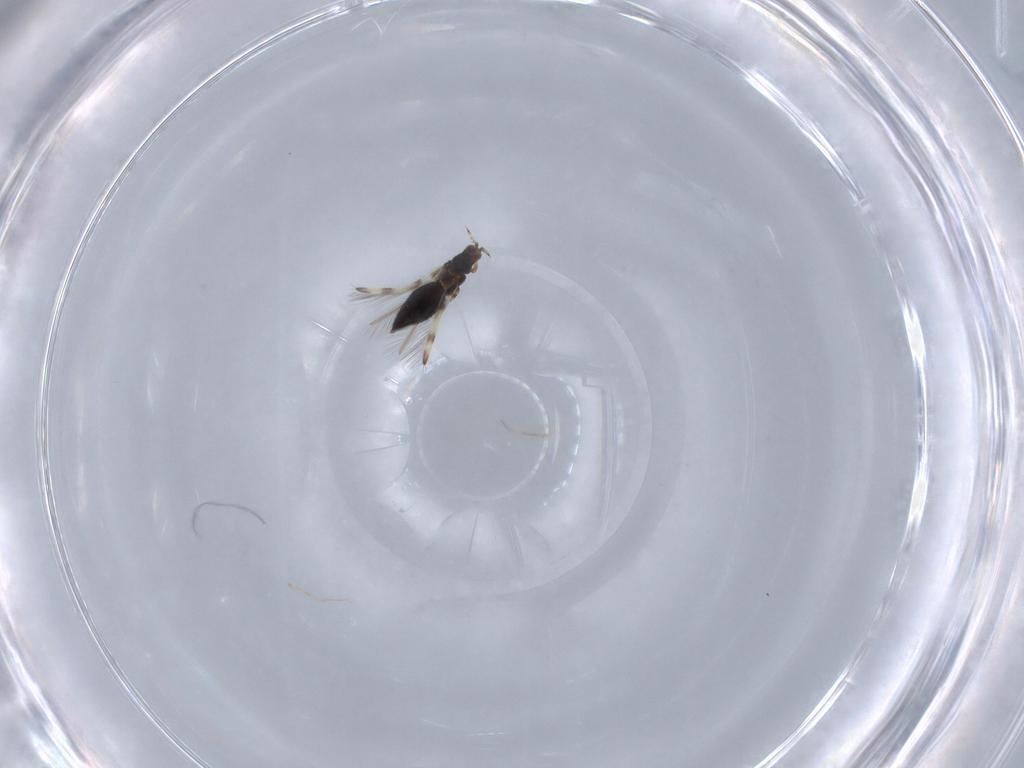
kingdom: Animalia
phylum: Arthropoda
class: Insecta
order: Thysanoptera
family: Thripidae
